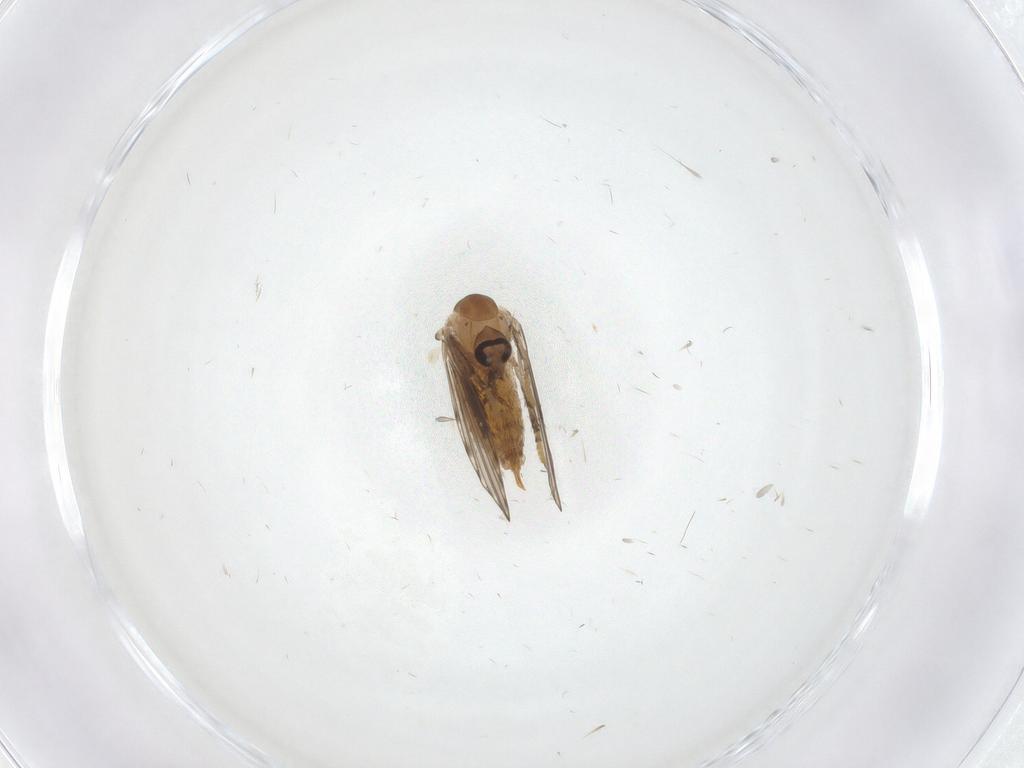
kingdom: Animalia
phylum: Arthropoda
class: Insecta
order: Diptera
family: Psychodidae
